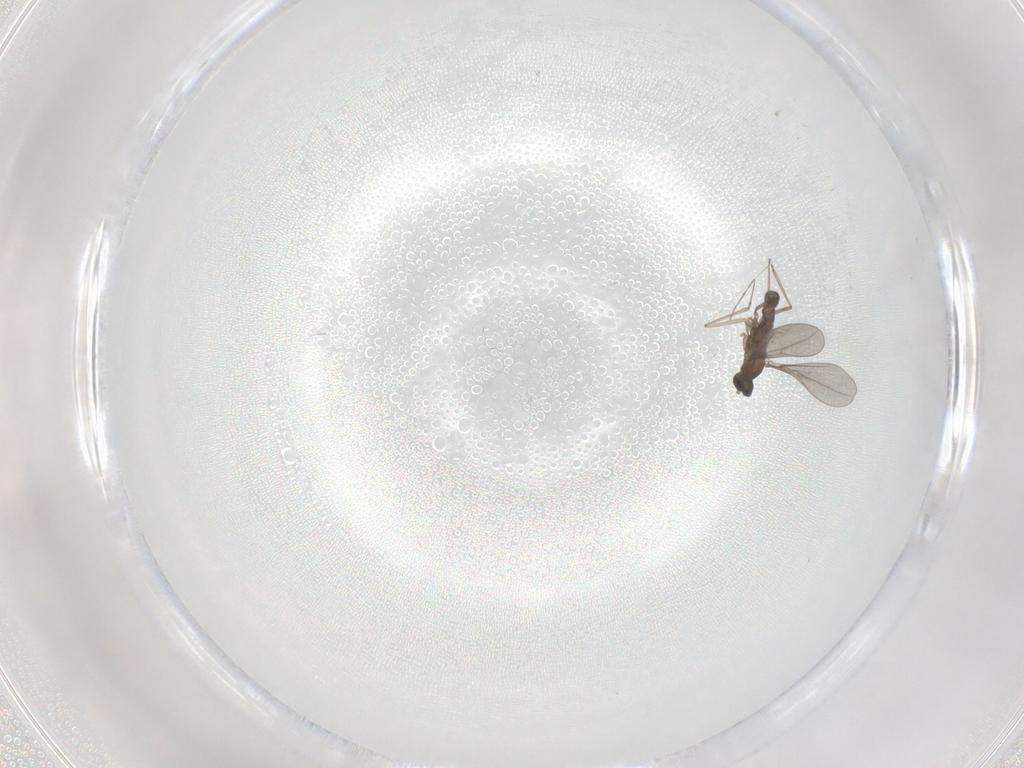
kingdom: Animalia
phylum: Arthropoda
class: Insecta
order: Diptera
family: Psychodidae
